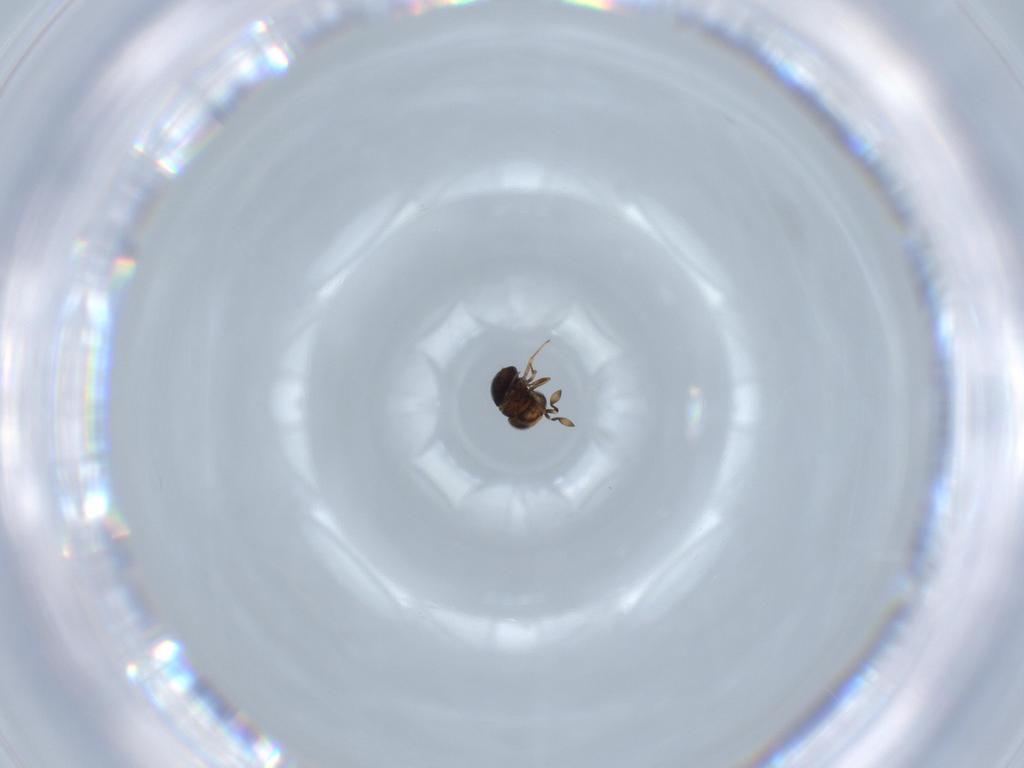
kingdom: Animalia
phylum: Arthropoda
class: Insecta
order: Hymenoptera
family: Scelionidae
